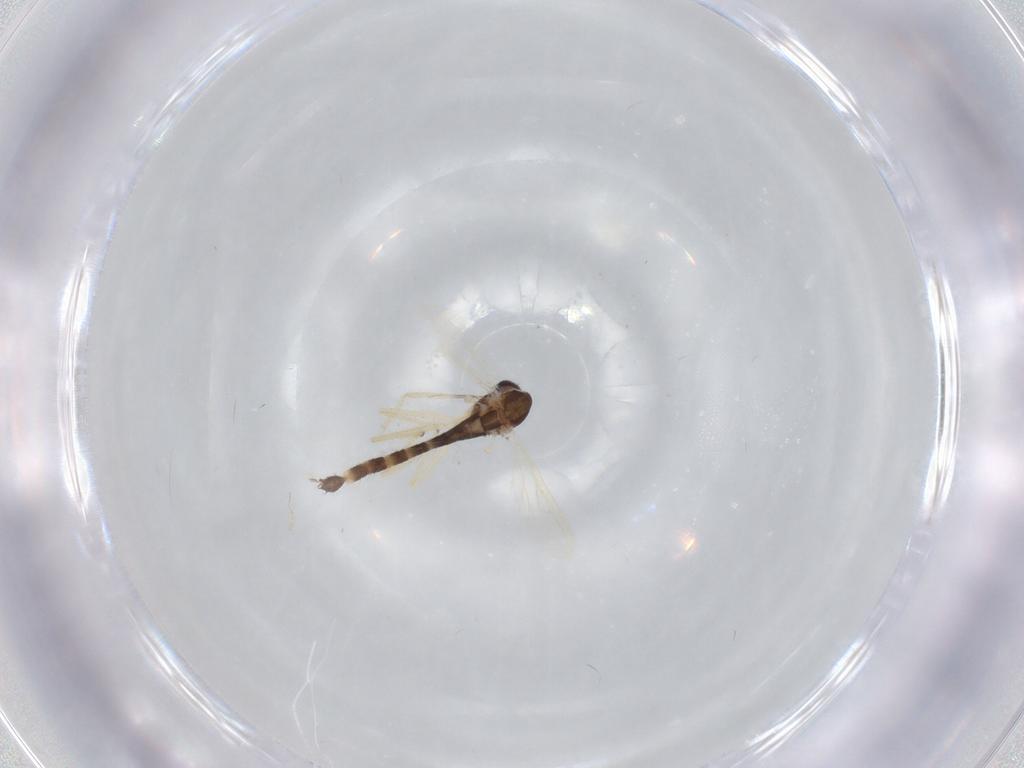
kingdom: Animalia
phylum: Arthropoda
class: Insecta
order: Diptera
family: Chironomidae
